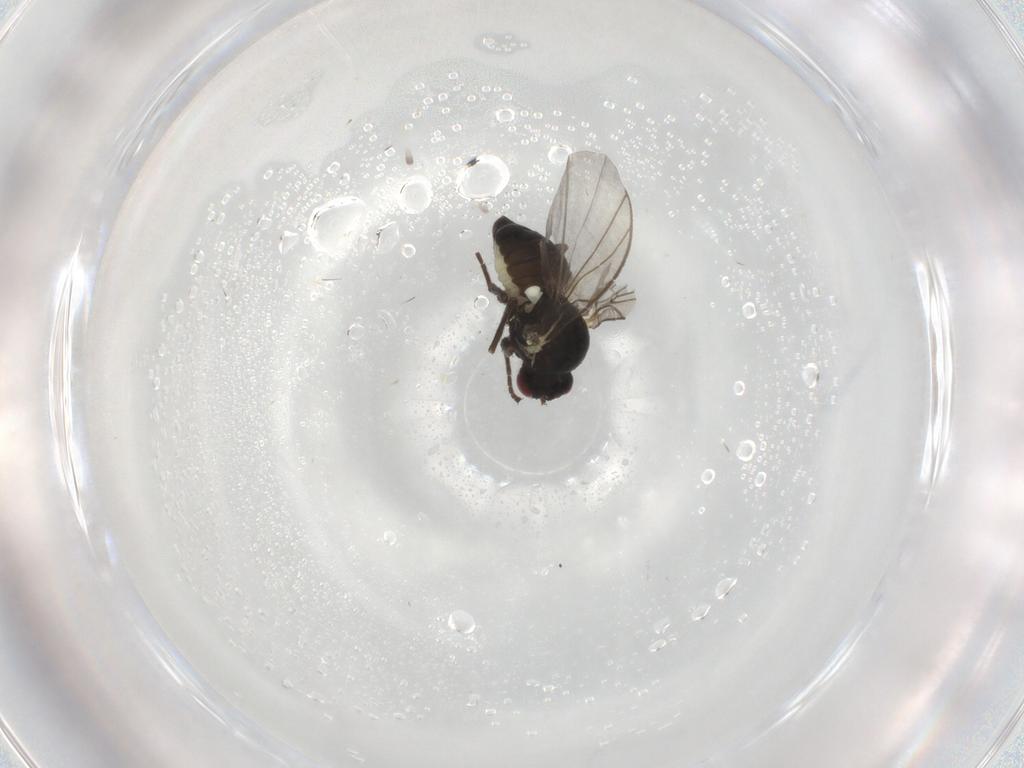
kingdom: Animalia
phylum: Arthropoda
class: Insecta
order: Diptera
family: Agromyzidae
